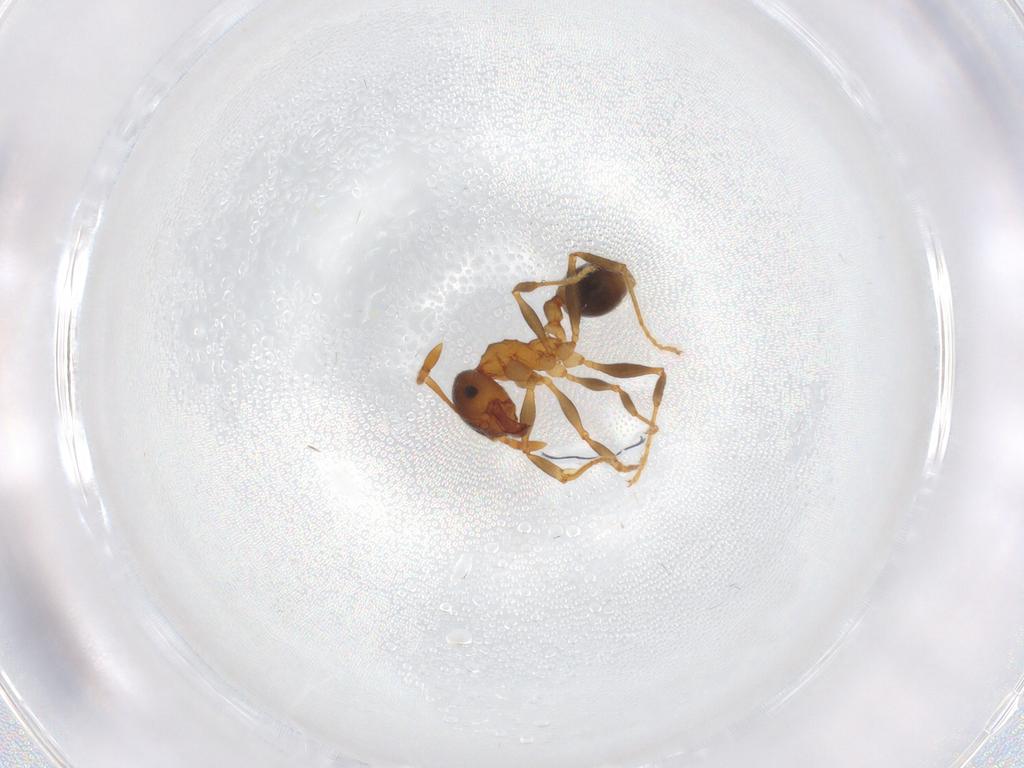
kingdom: Animalia
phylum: Arthropoda
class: Insecta
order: Hymenoptera
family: Formicidae
